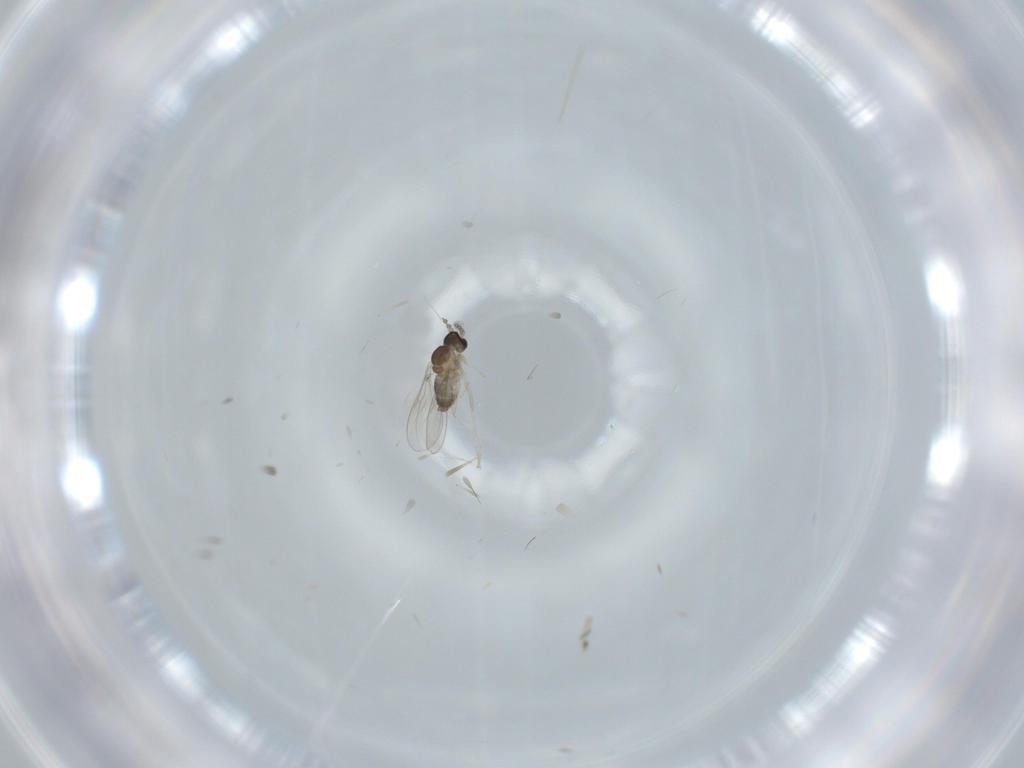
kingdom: Animalia
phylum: Arthropoda
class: Insecta
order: Diptera
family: Cecidomyiidae
